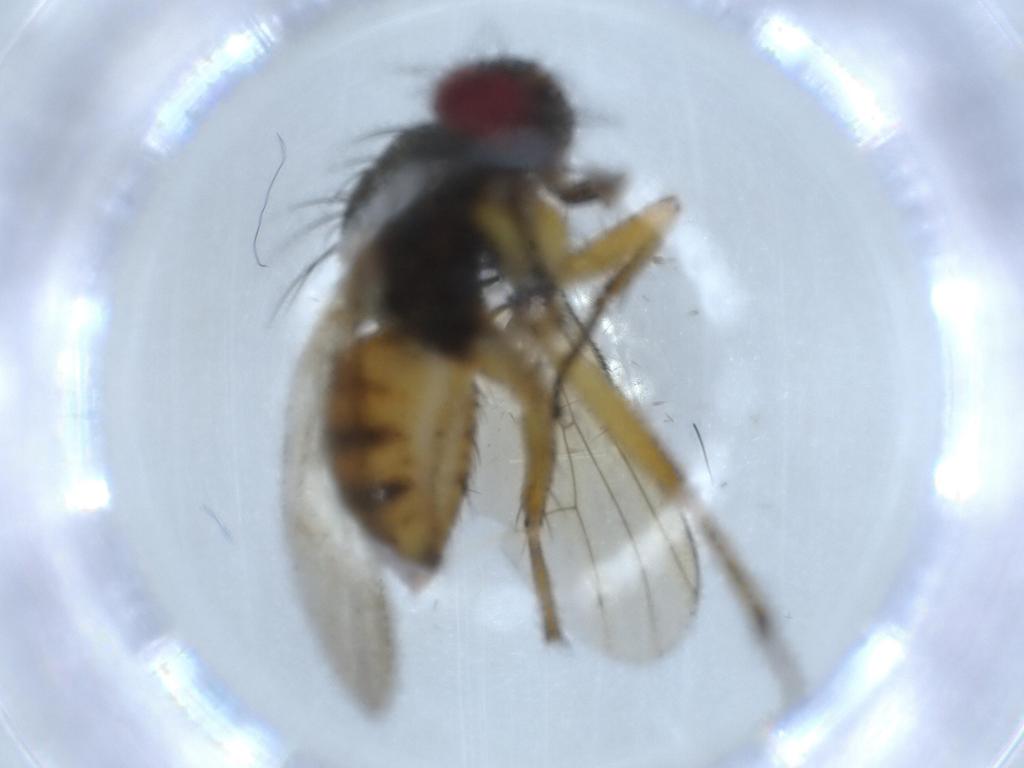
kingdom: Animalia
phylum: Arthropoda
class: Insecta
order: Diptera
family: Muscidae
